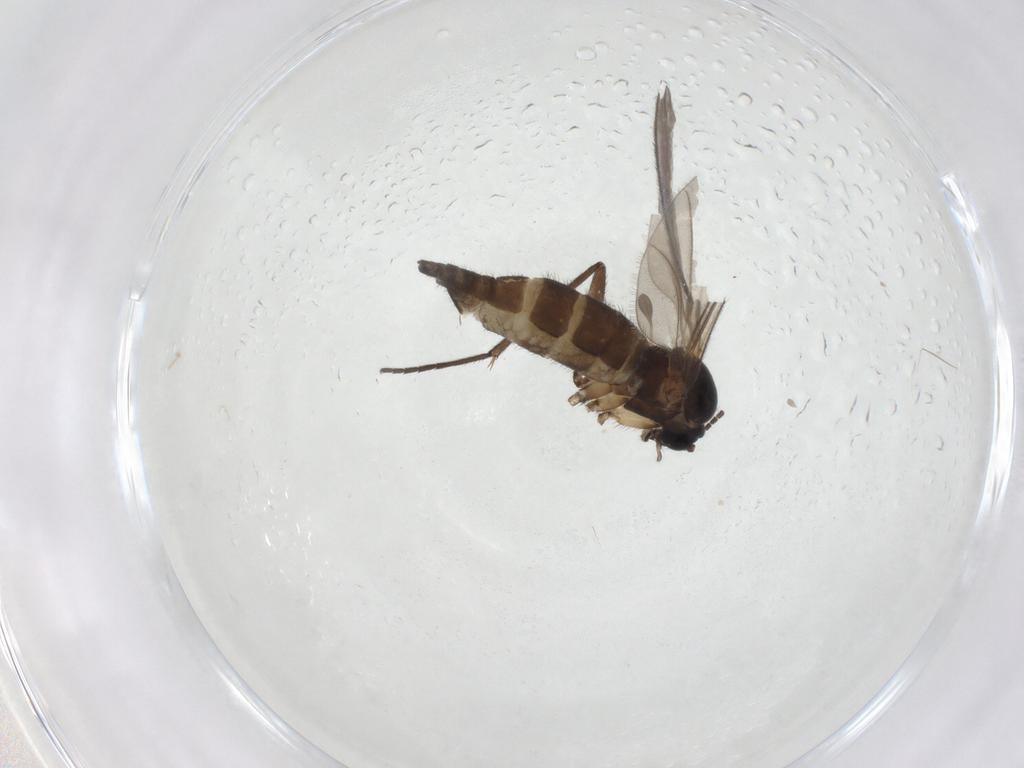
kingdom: Animalia
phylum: Arthropoda
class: Insecta
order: Diptera
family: Sciaridae
